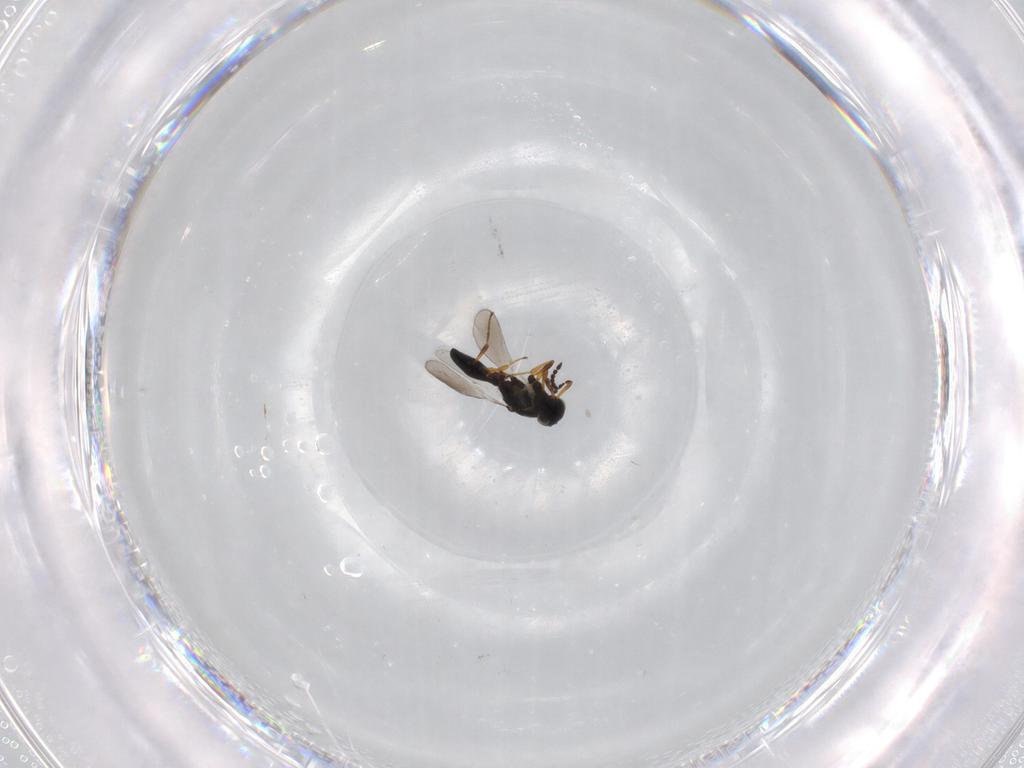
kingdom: Animalia
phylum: Arthropoda
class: Insecta
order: Hymenoptera
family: Platygastridae
